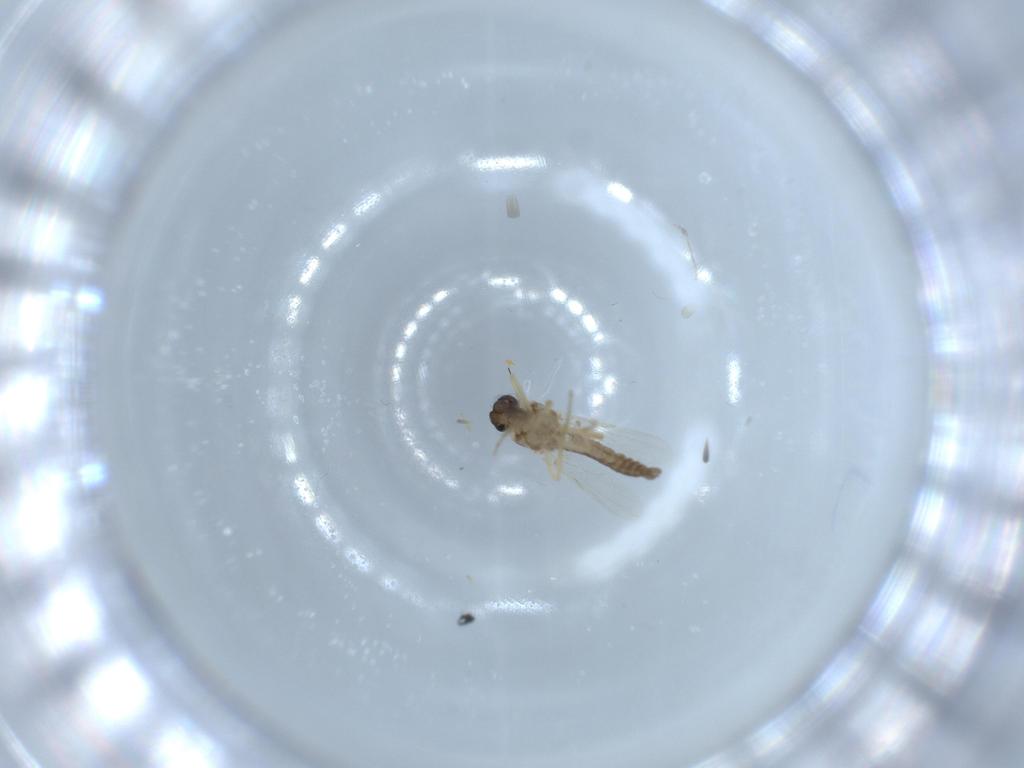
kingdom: Animalia
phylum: Arthropoda
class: Insecta
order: Diptera
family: Ceratopogonidae
